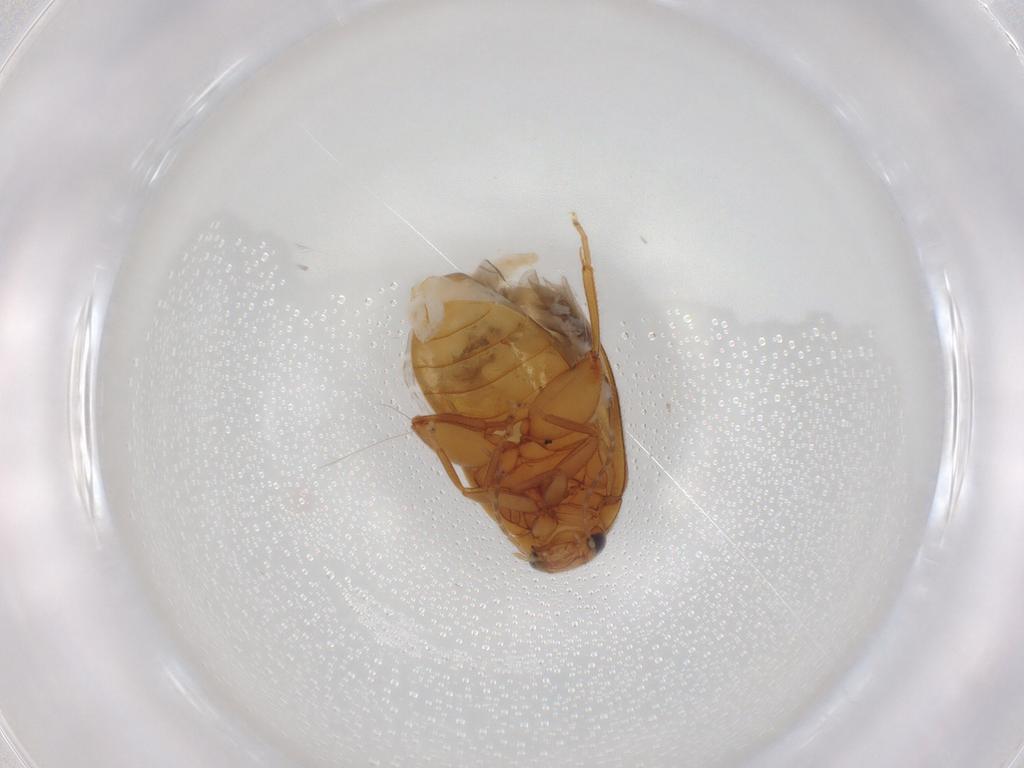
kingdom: Animalia
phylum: Arthropoda
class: Insecta
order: Coleoptera
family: Scirtidae
